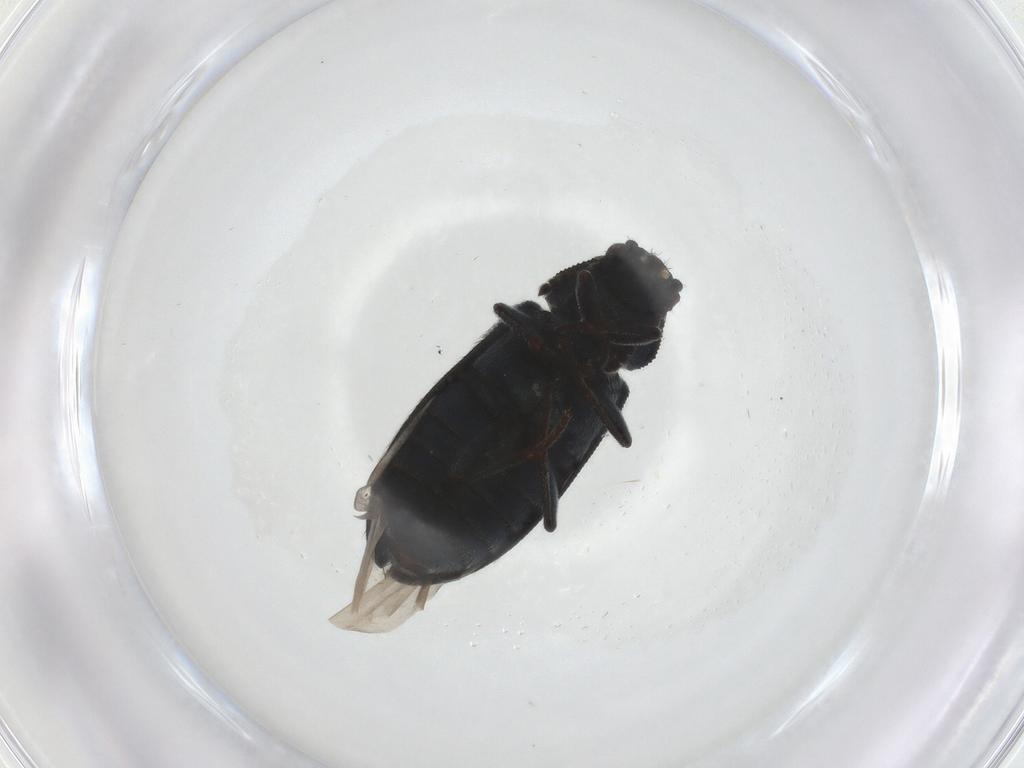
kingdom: Animalia
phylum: Arthropoda
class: Insecta
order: Coleoptera
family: Melyridae
